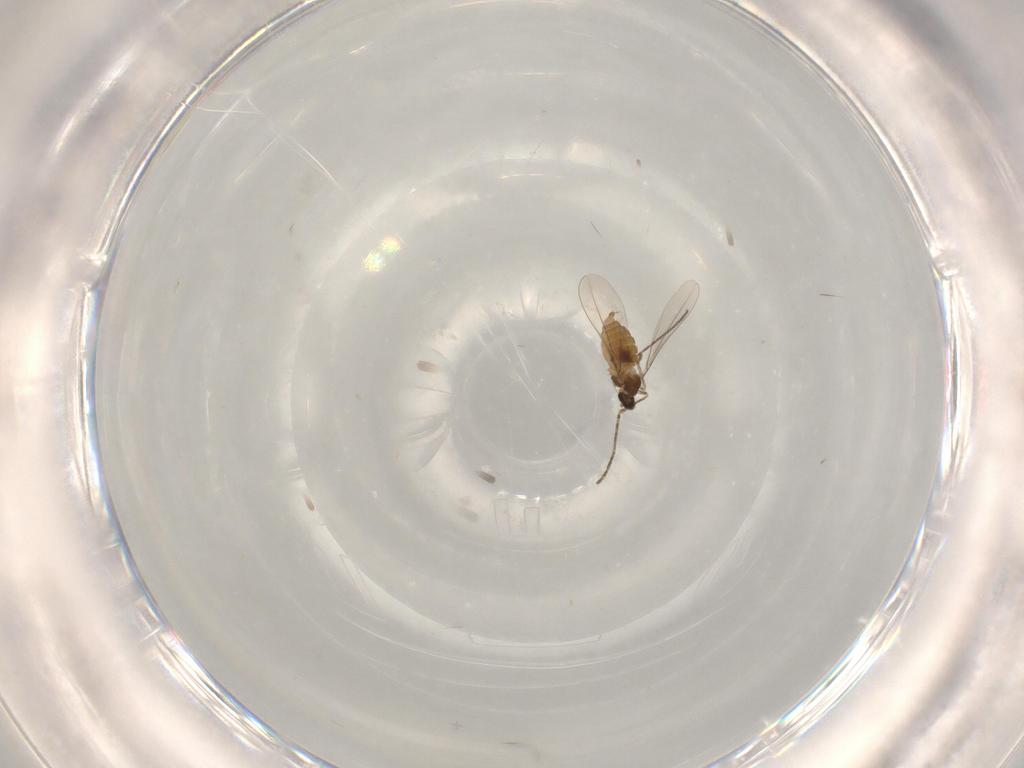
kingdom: Animalia
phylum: Arthropoda
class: Insecta
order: Diptera
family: Cecidomyiidae
